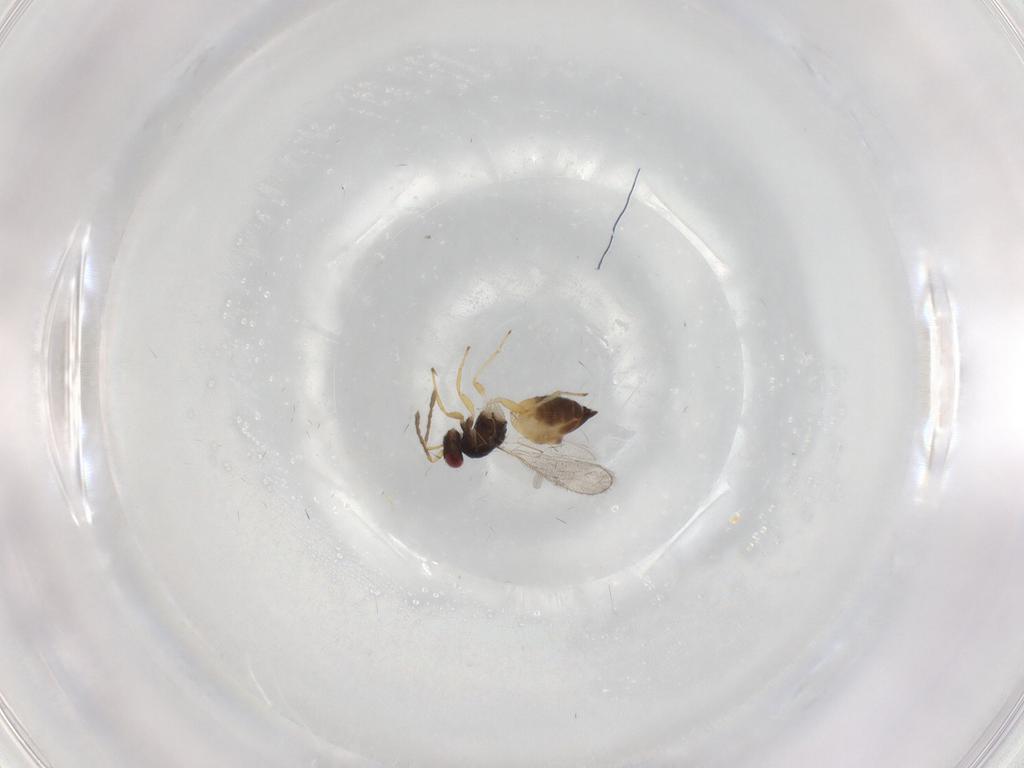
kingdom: Animalia
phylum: Arthropoda
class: Insecta
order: Hymenoptera
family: Eulophidae
